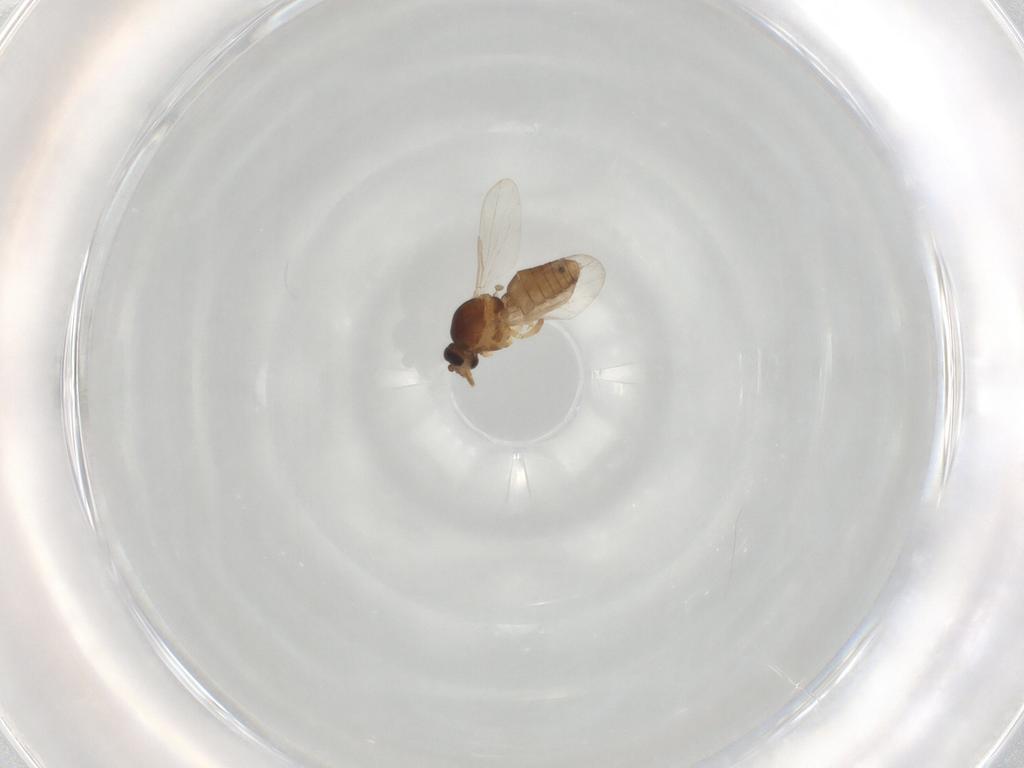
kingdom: Animalia
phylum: Arthropoda
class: Insecta
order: Diptera
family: Ceratopogonidae
